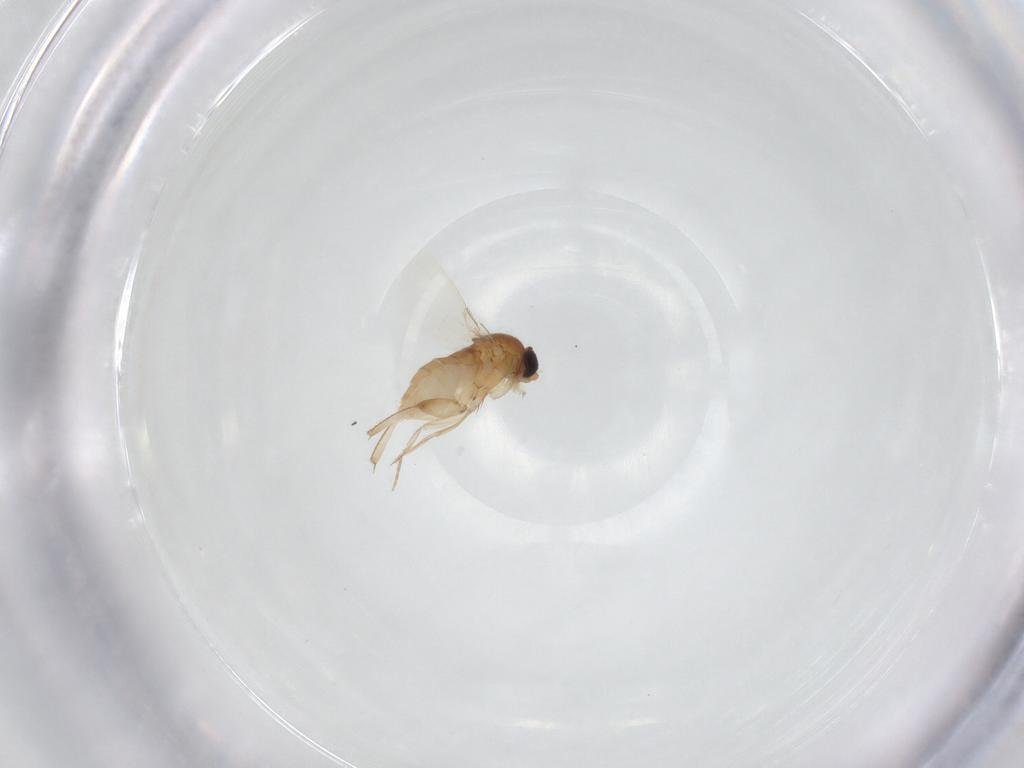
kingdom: Animalia
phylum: Arthropoda
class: Insecta
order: Diptera
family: Phoridae
